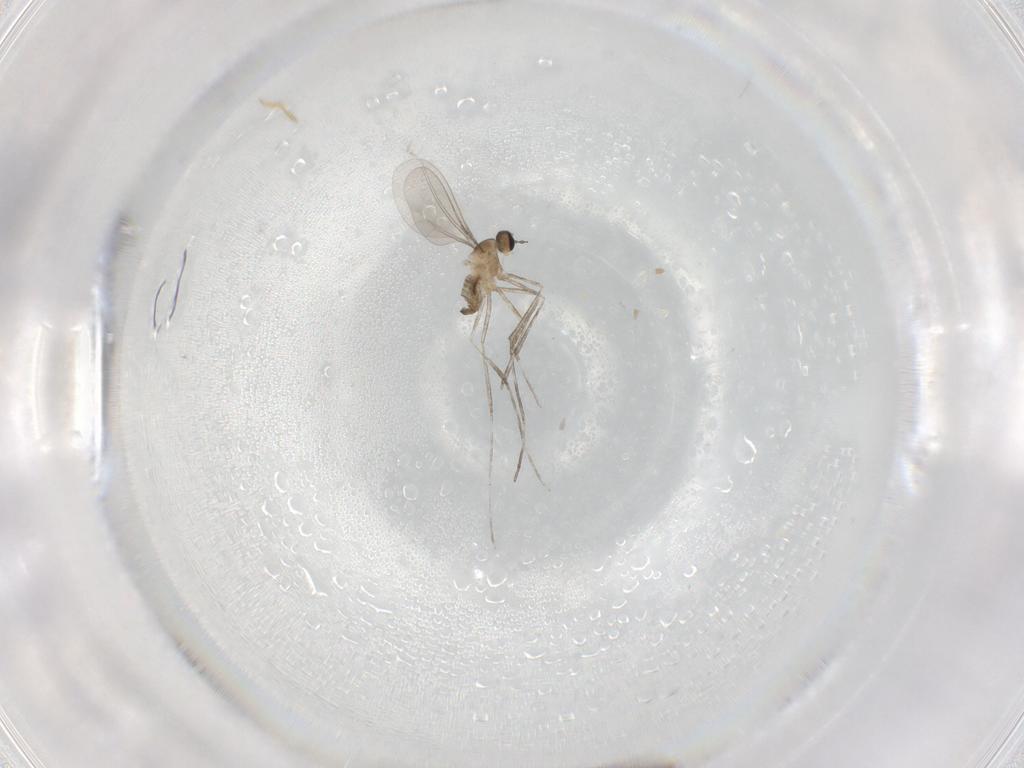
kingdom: Animalia
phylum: Arthropoda
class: Insecta
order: Diptera
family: Cecidomyiidae
